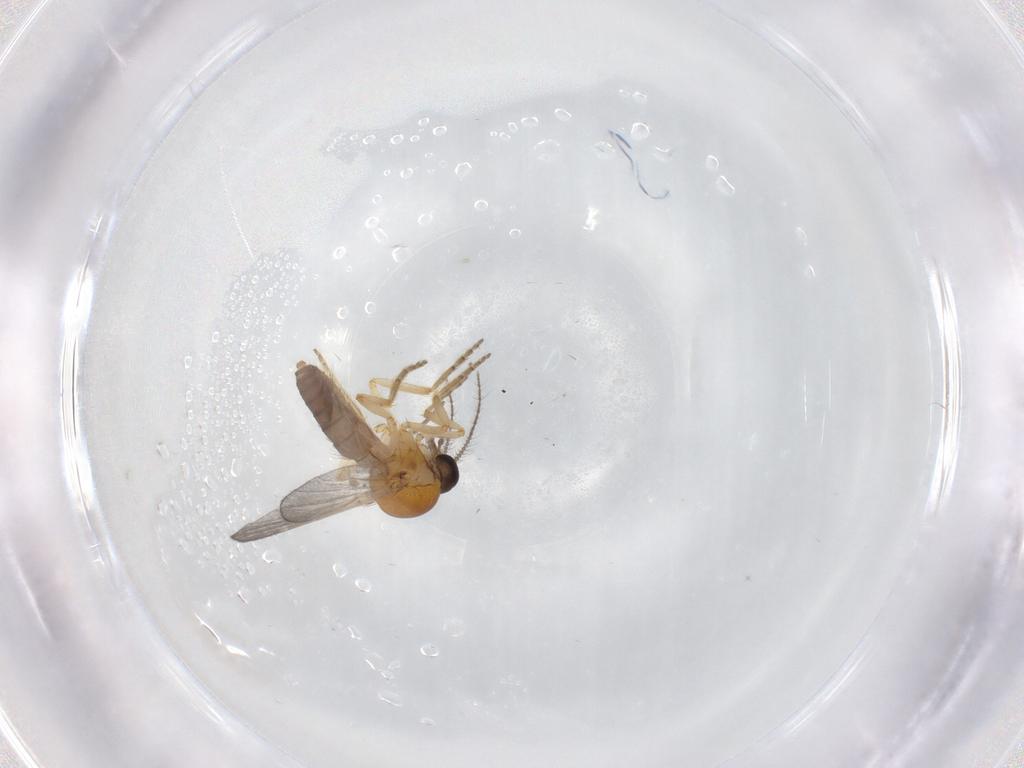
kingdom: Animalia
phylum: Arthropoda
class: Insecta
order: Diptera
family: Ceratopogonidae
